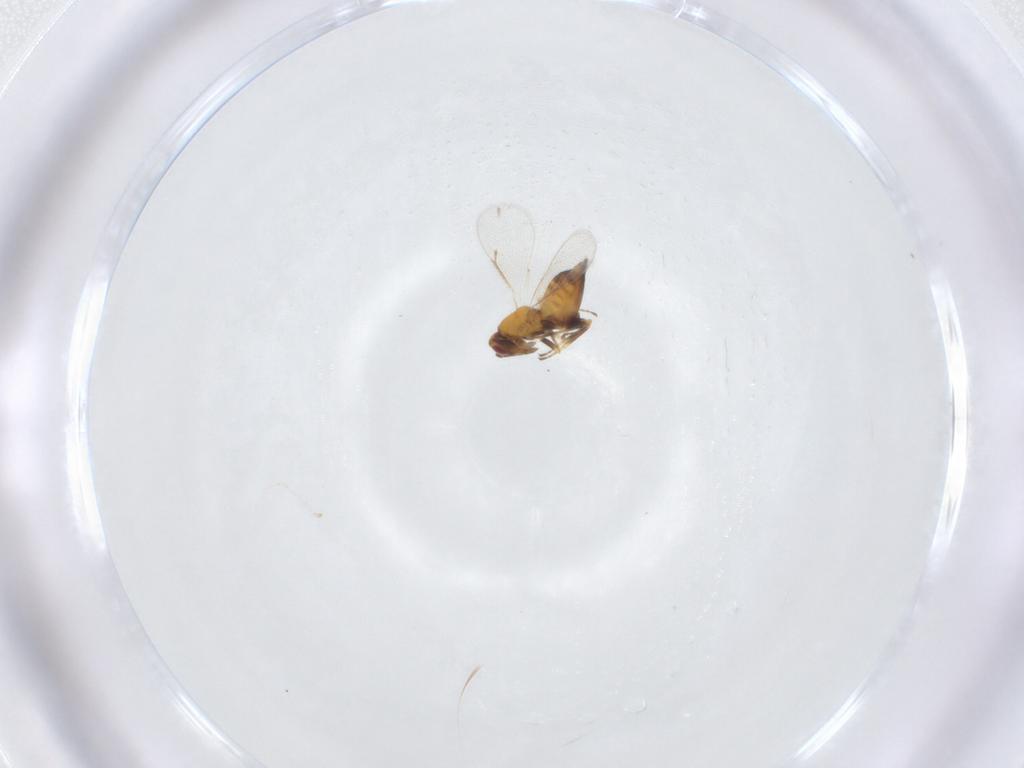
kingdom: Animalia
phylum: Arthropoda
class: Insecta
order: Hymenoptera
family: Eulophidae
